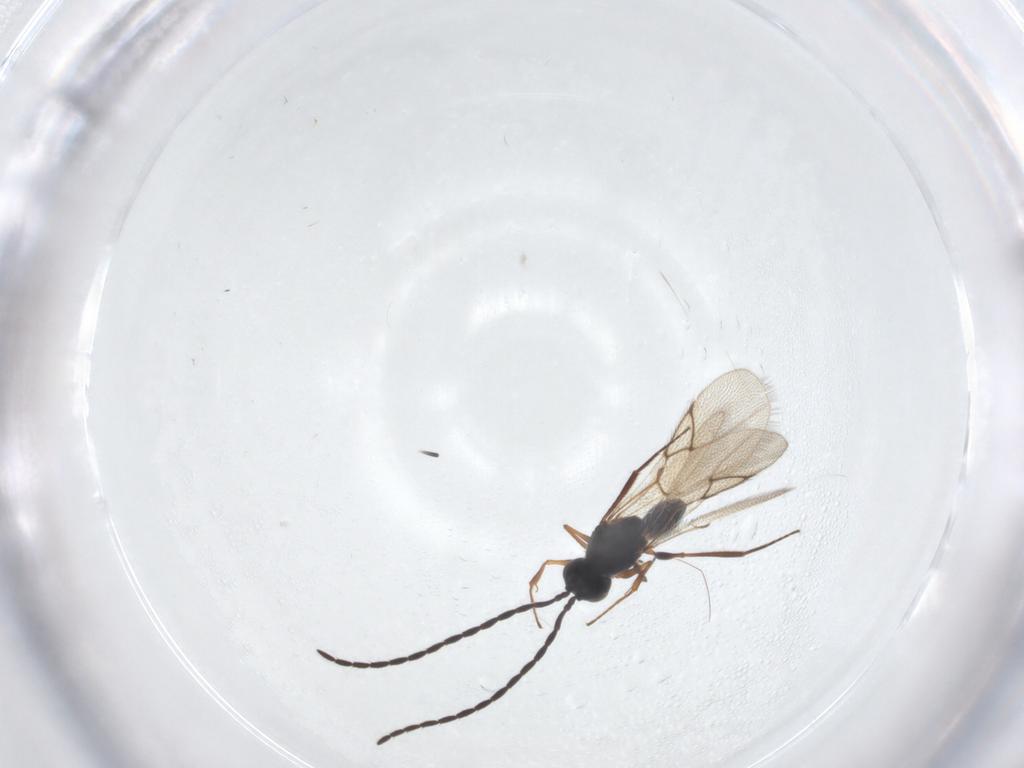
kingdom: Animalia
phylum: Arthropoda
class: Insecta
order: Hymenoptera
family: Figitidae
